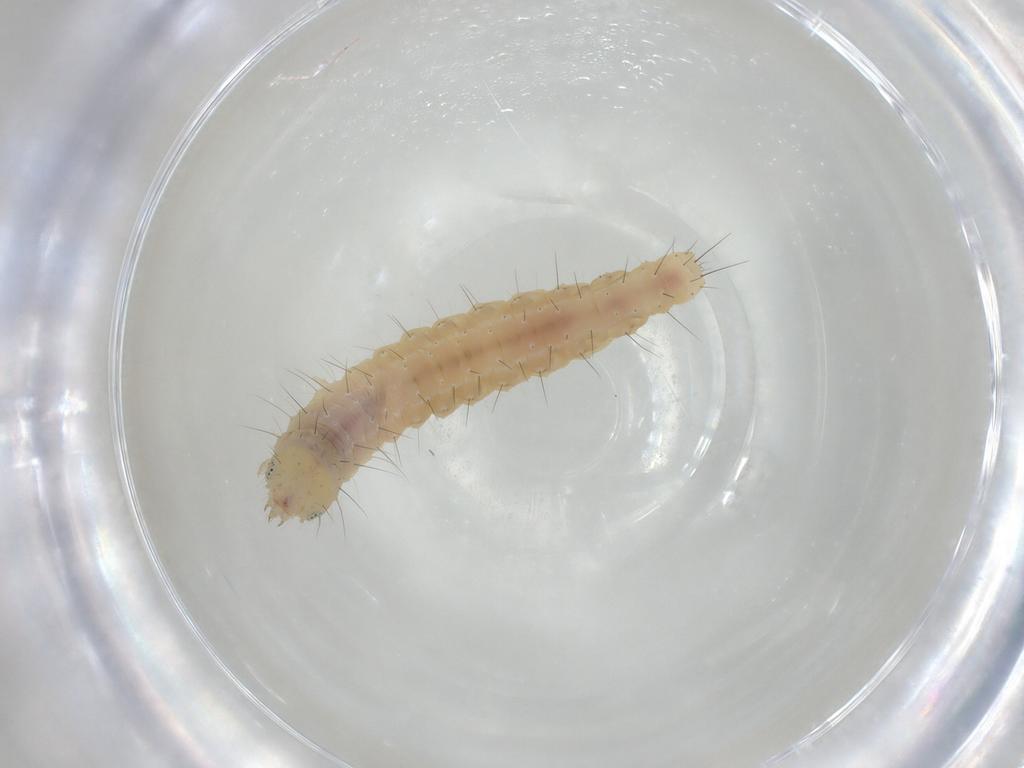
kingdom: Animalia
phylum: Arthropoda
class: Insecta
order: Lepidoptera
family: Gelechiidae
